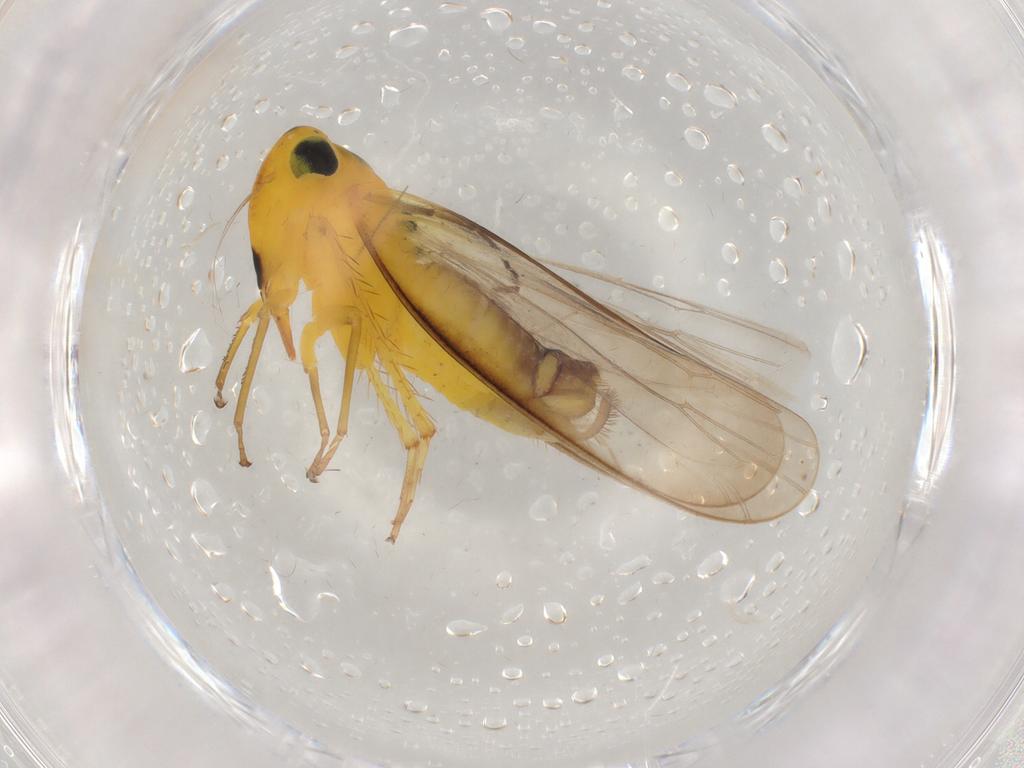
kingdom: Animalia
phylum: Arthropoda
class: Insecta
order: Hemiptera
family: Cicadellidae
